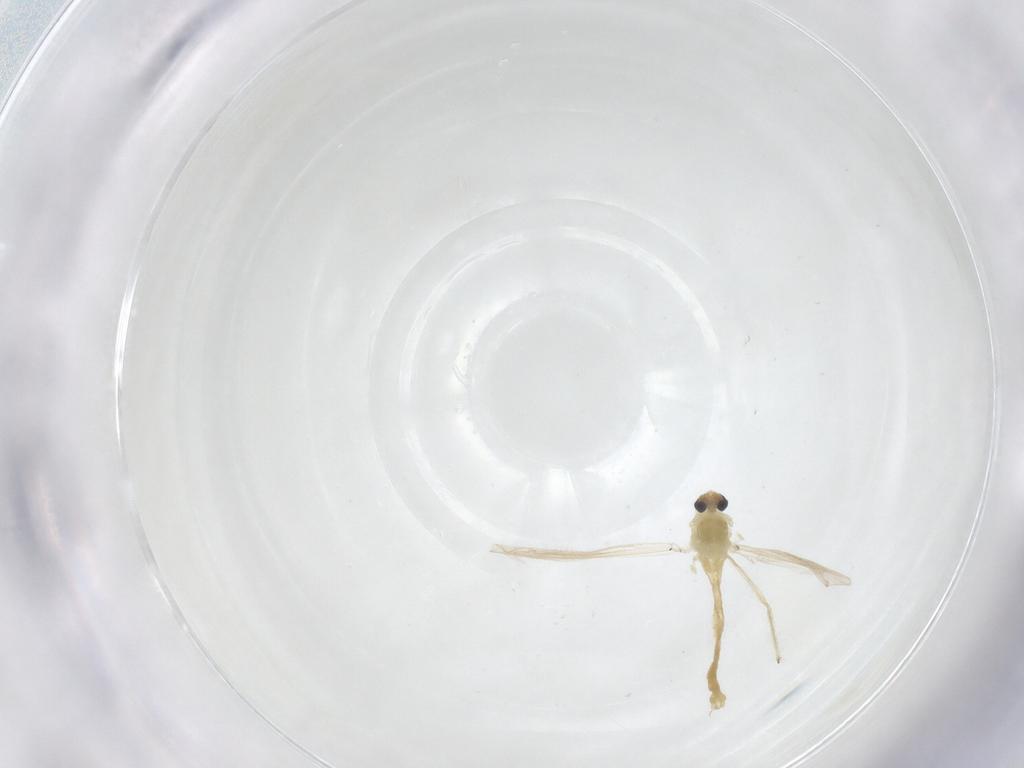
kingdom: Animalia
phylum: Arthropoda
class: Insecta
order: Diptera
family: Chironomidae
